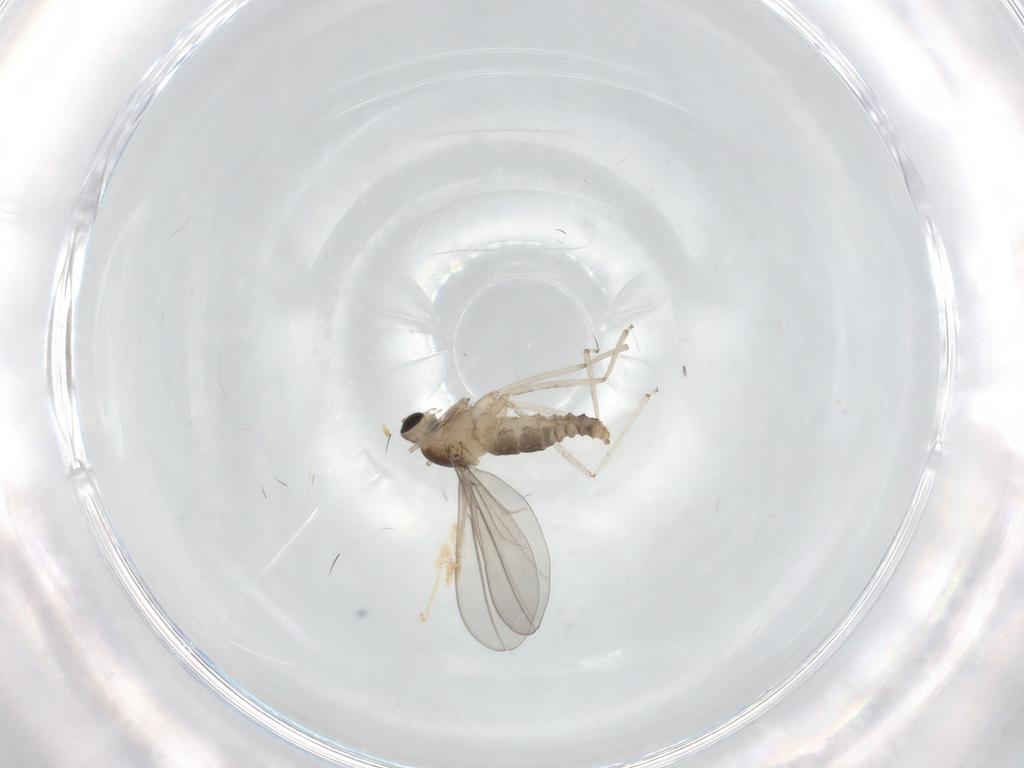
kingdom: Animalia
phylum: Arthropoda
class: Insecta
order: Diptera
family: Cecidomyiidae
